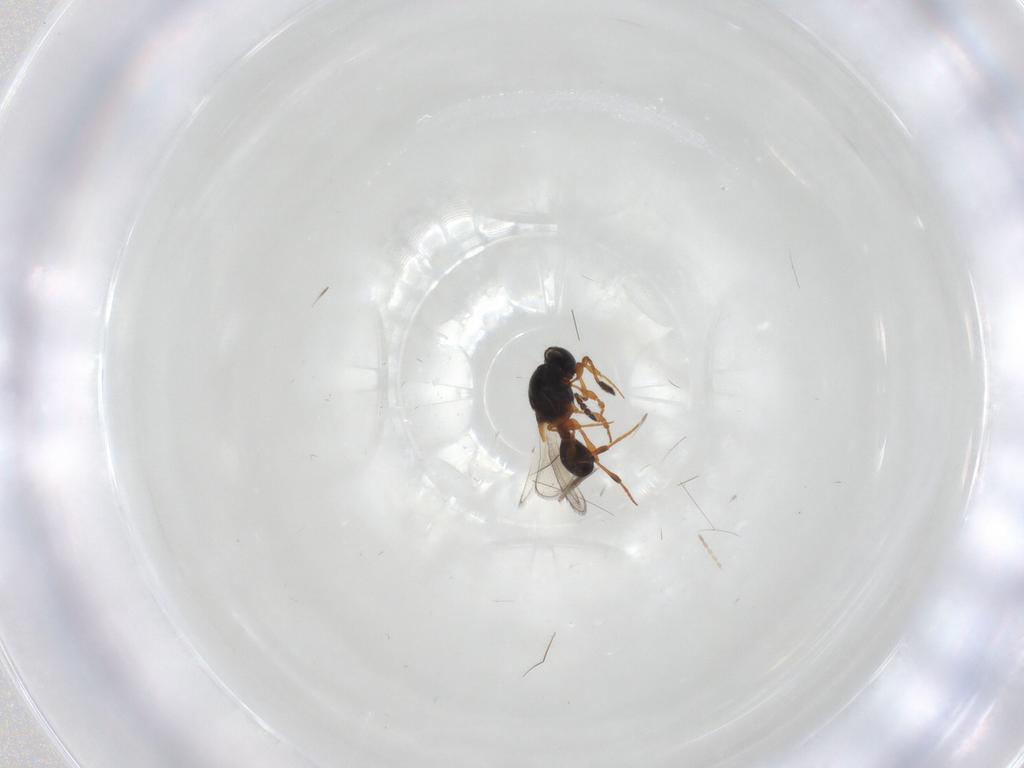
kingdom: Animalia
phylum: Arthropoda
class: Insecta
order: Hymenoptera
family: Platygastridae
